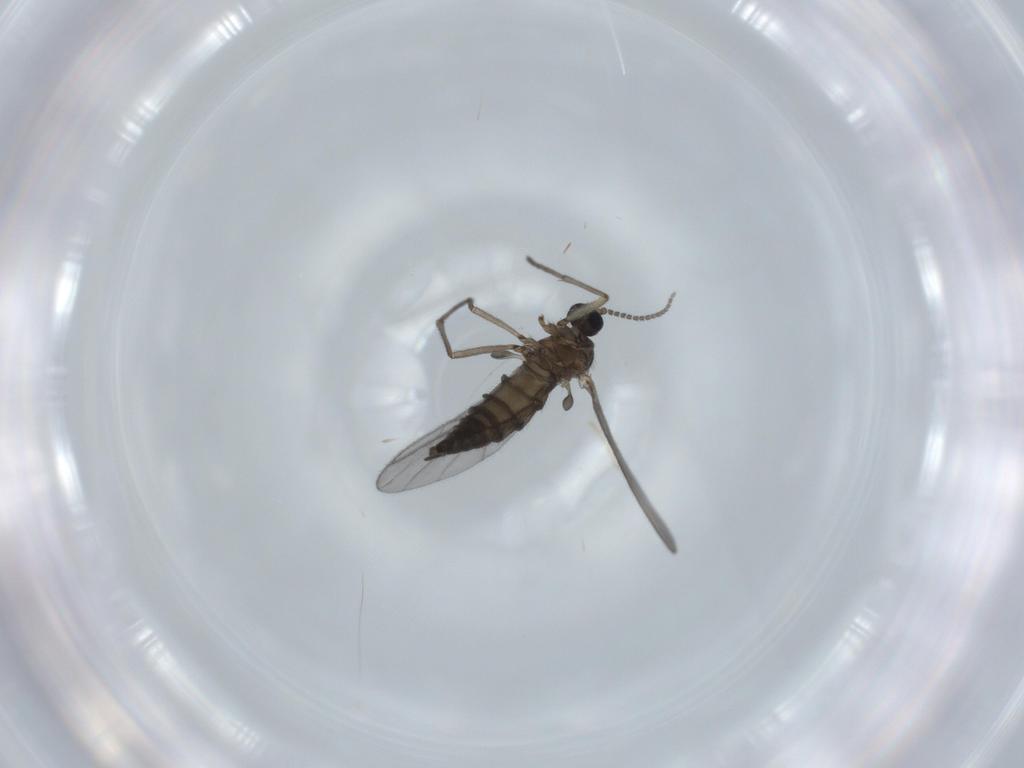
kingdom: Animalia
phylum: Arthropoda
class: Insecta
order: Diptera
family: Sciaridae
